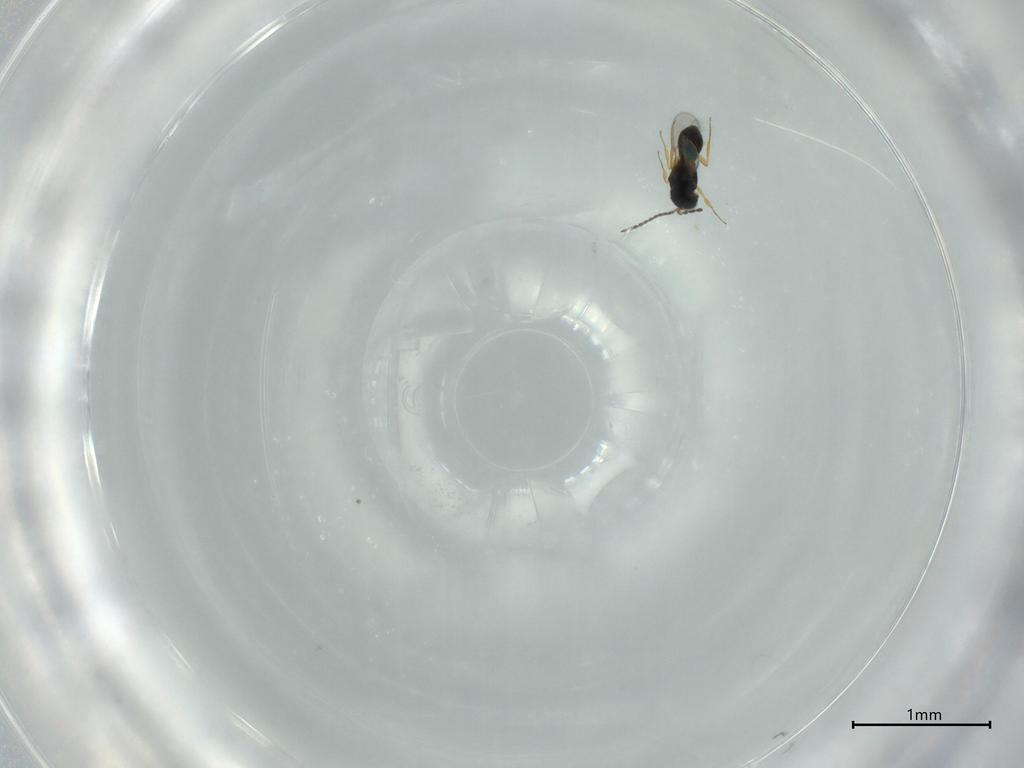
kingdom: Animalia
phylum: Arthropoda
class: Insecta
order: Hymenoptera
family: Scelionidae
